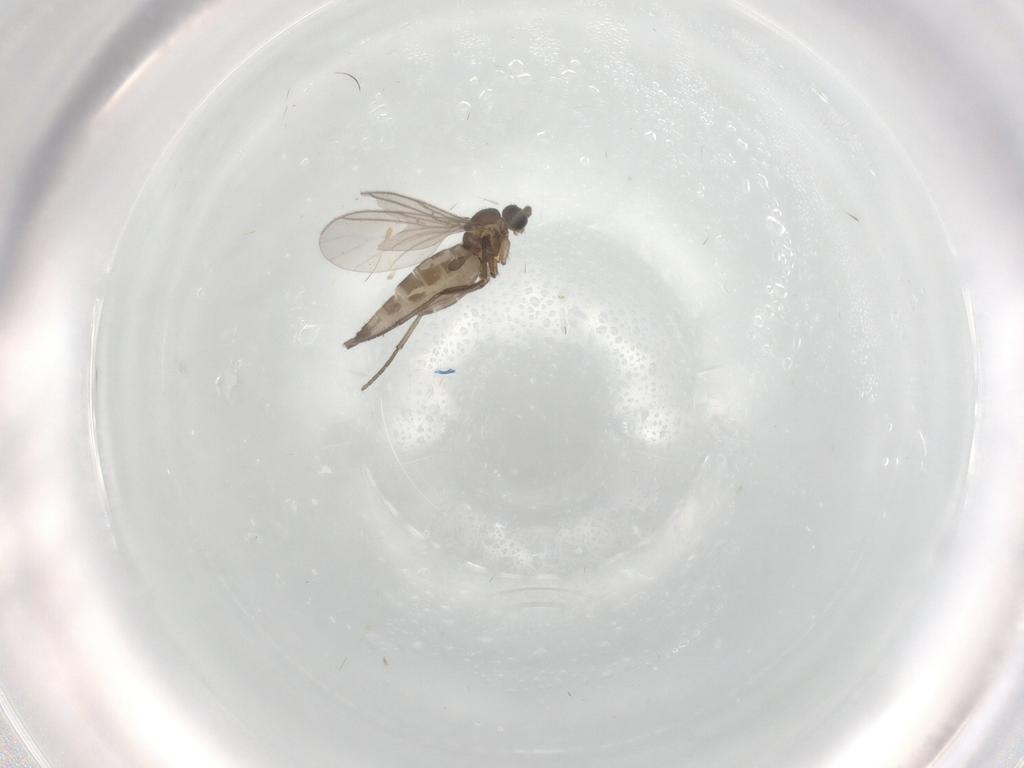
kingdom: Animalia
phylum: Arthropoda
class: Insecta
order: Diptera
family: Sciaridae
